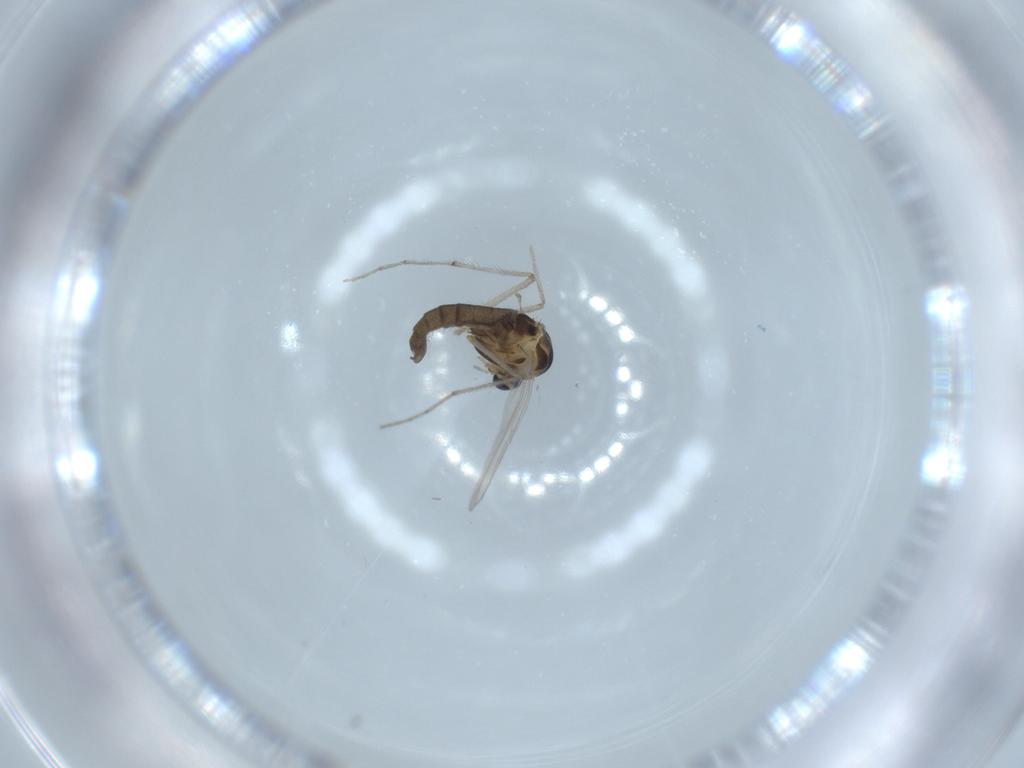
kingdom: Animalia
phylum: Arthropoda
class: Insecta
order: Diptera
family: Chironomidae
